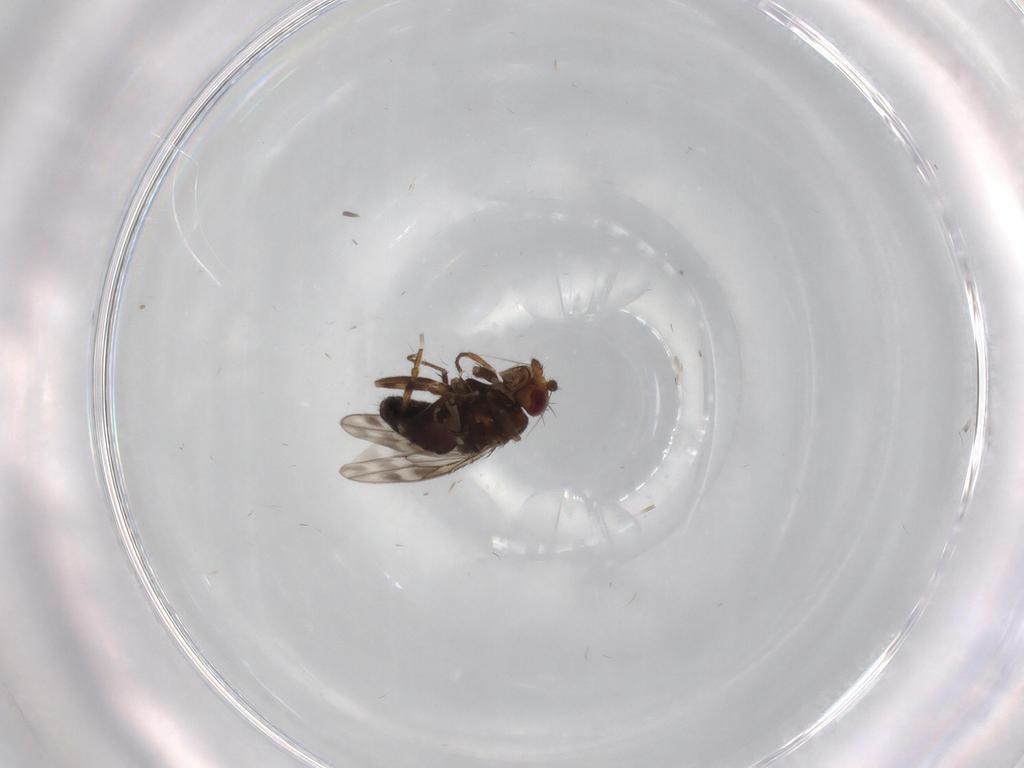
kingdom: Animalia
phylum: Arthropoda
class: Insecta
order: Diptera
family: Sphaeroceridae
